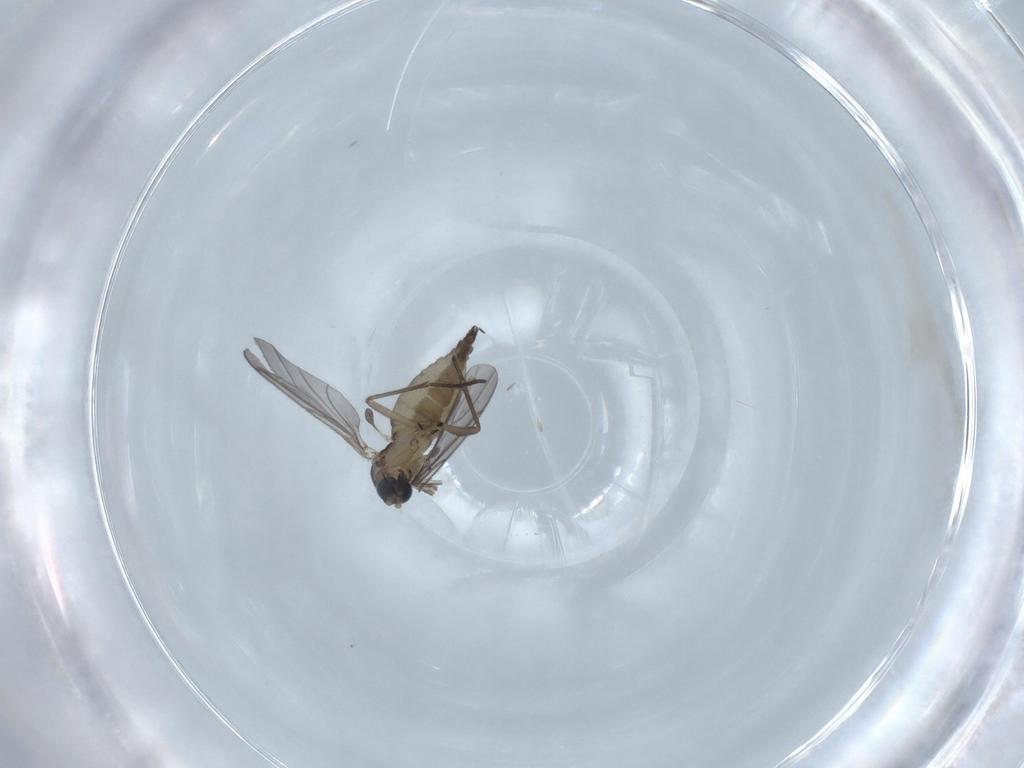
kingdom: Animalia
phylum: Arthropoda
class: Insecta
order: Diptera
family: Sciaridae
